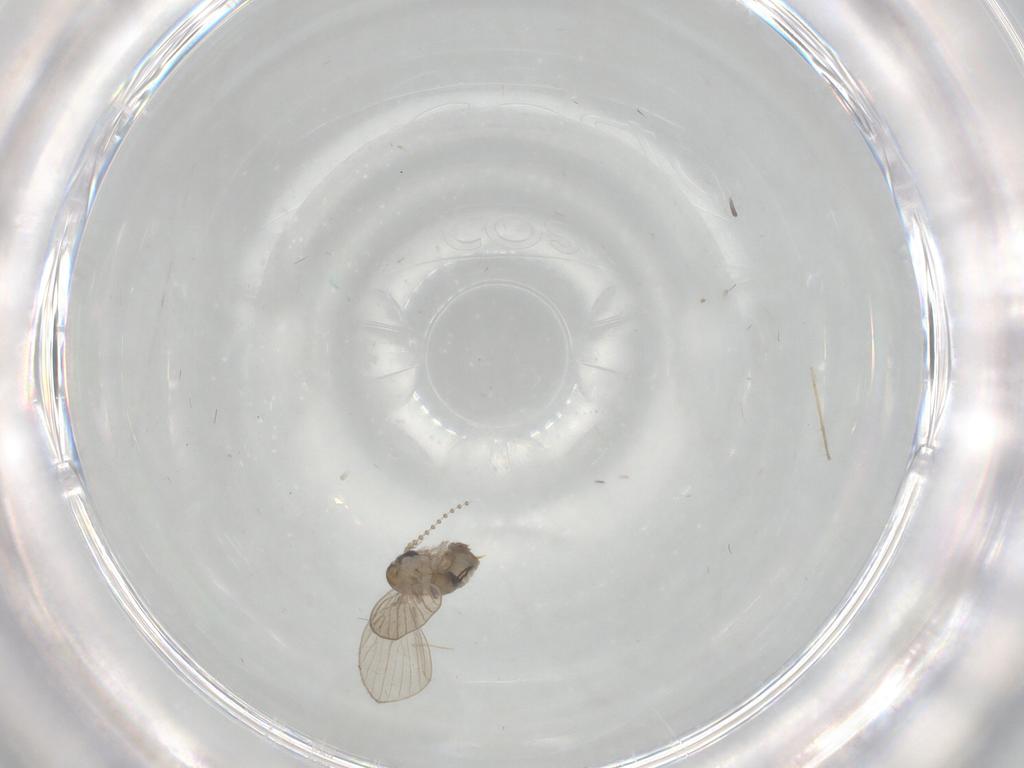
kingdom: Animalia
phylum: Arthropoda
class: Insecta
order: Diptera
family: Psychodidae
